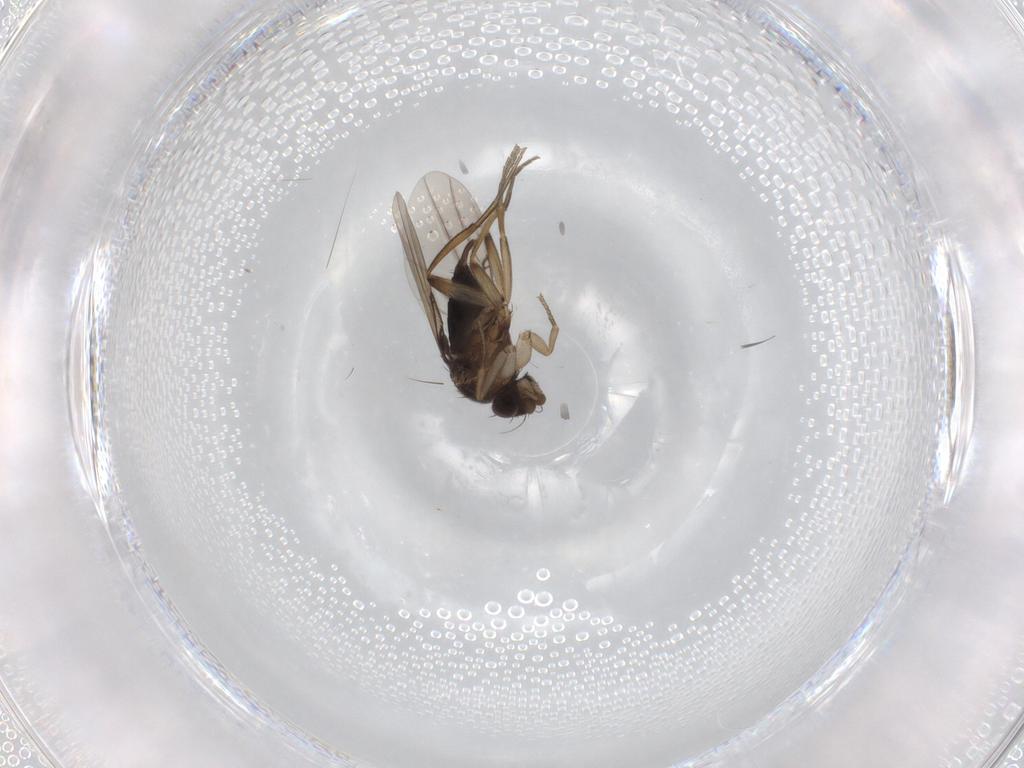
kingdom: Animalia
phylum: Arthropoda
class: Insecta
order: Diptera
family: Phoridae
